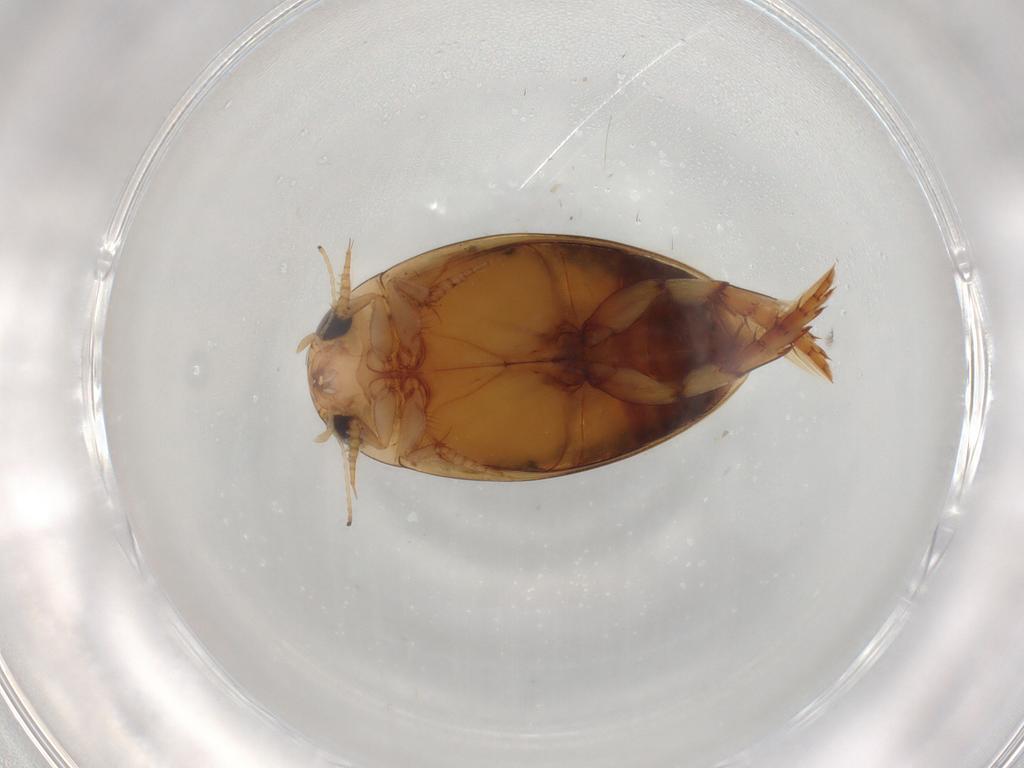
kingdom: Animalia
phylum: Arthropoda
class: Insecta
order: Coleoptera
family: Dytiscidae
